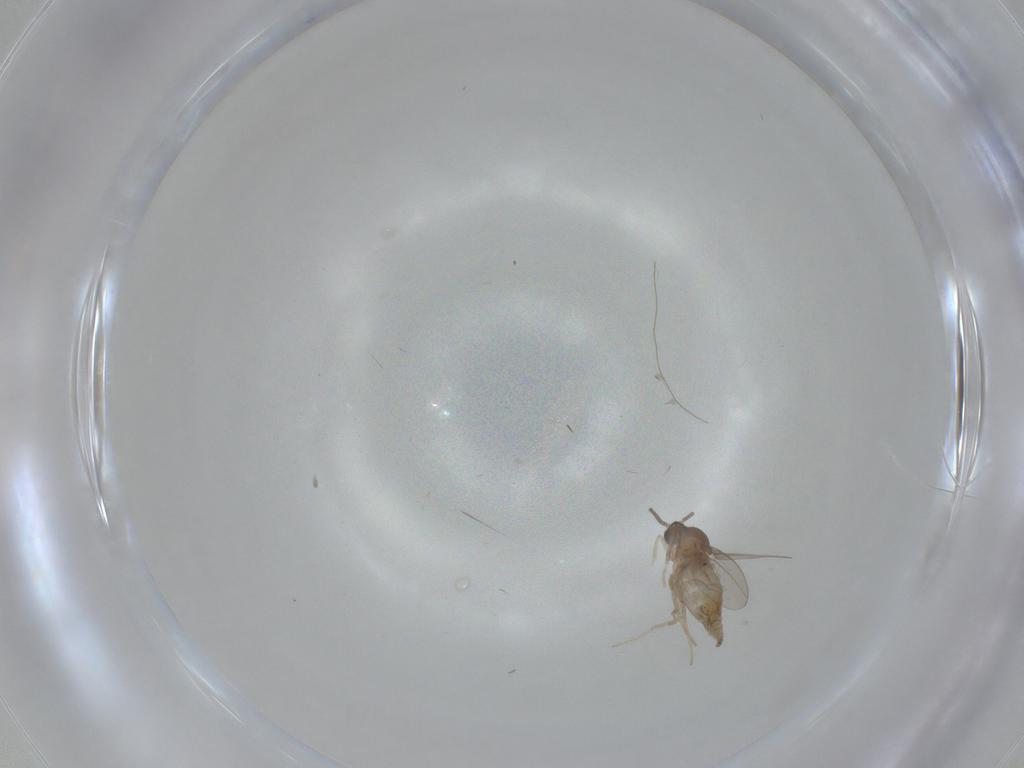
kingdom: Animalia
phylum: Arthropoda
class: Insecta
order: Diptera
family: Cecidomyiidae
